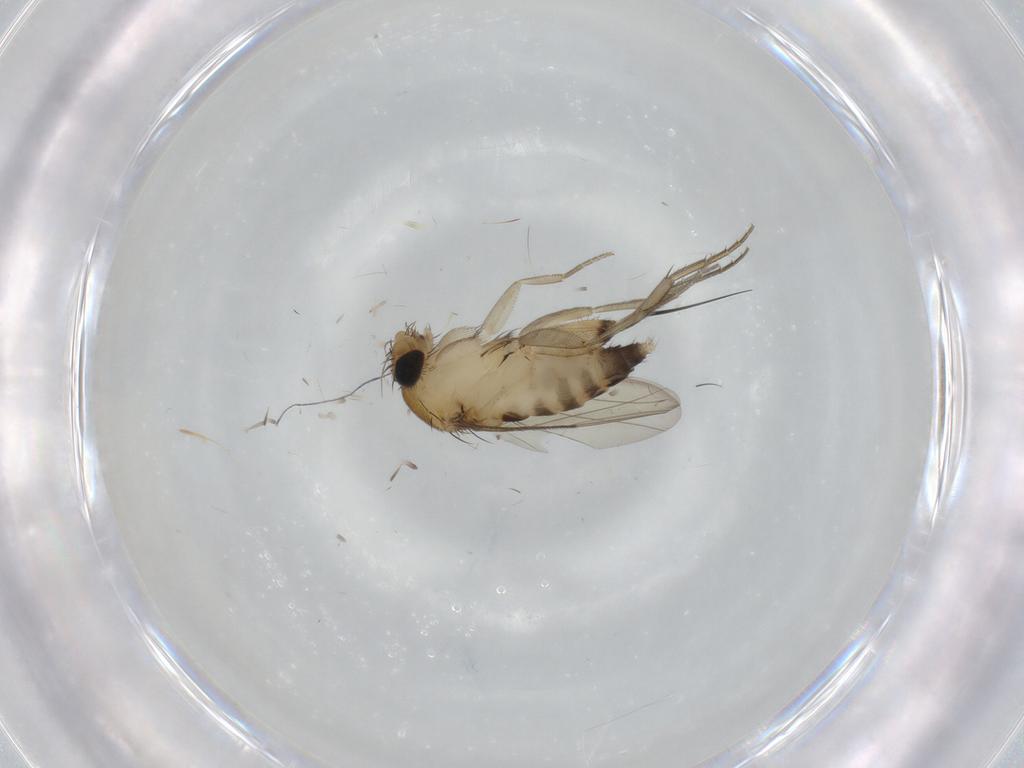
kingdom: Animalia
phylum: Arthropoda
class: Insecta
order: Diptera
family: Phoridae
